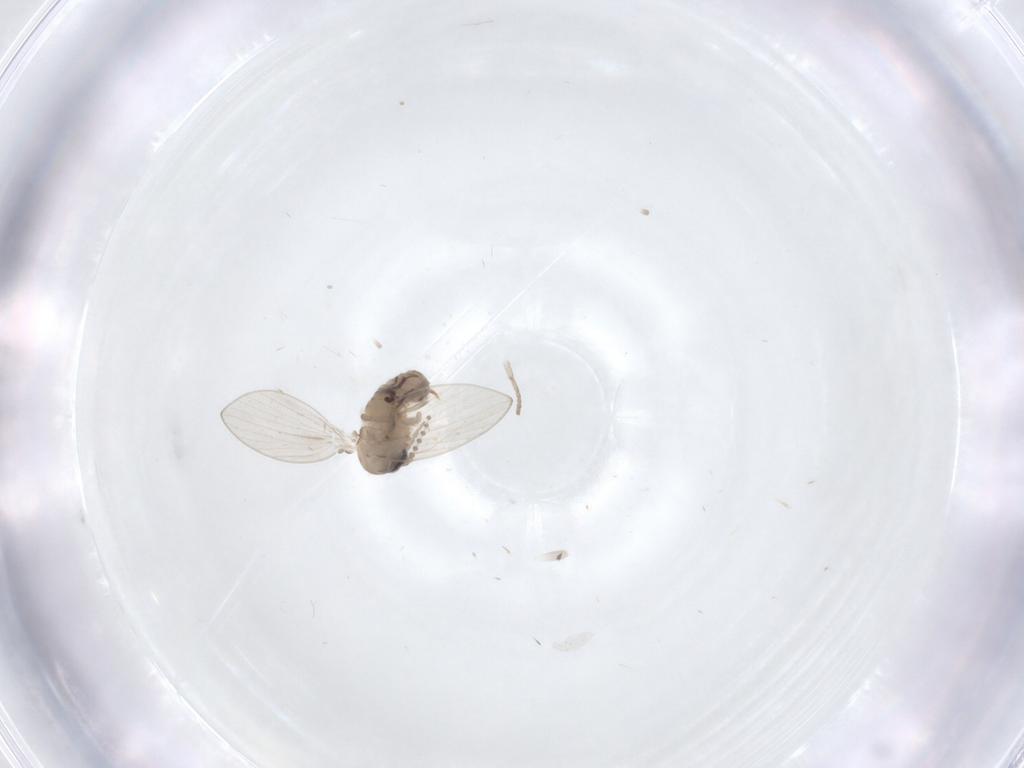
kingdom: Animalia
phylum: Arthropoda
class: Insecta
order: Diptera
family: Psychodidae
